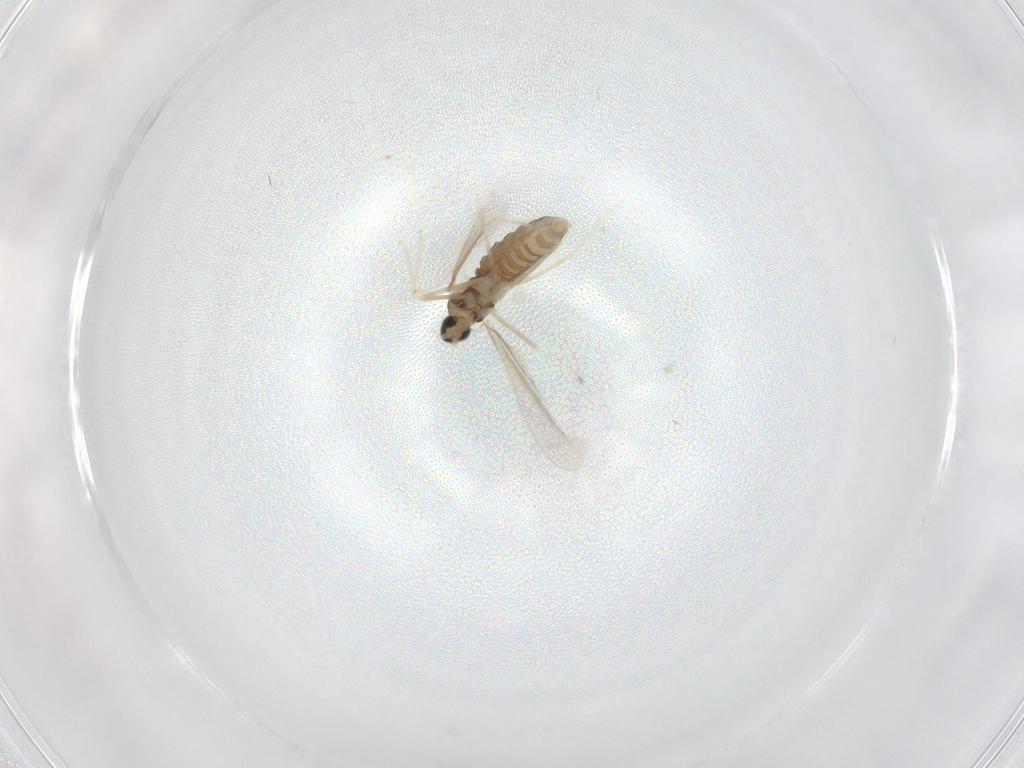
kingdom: Animalia
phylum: Arthropoda
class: Insecta
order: Diptera
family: Cecidomyiidae
